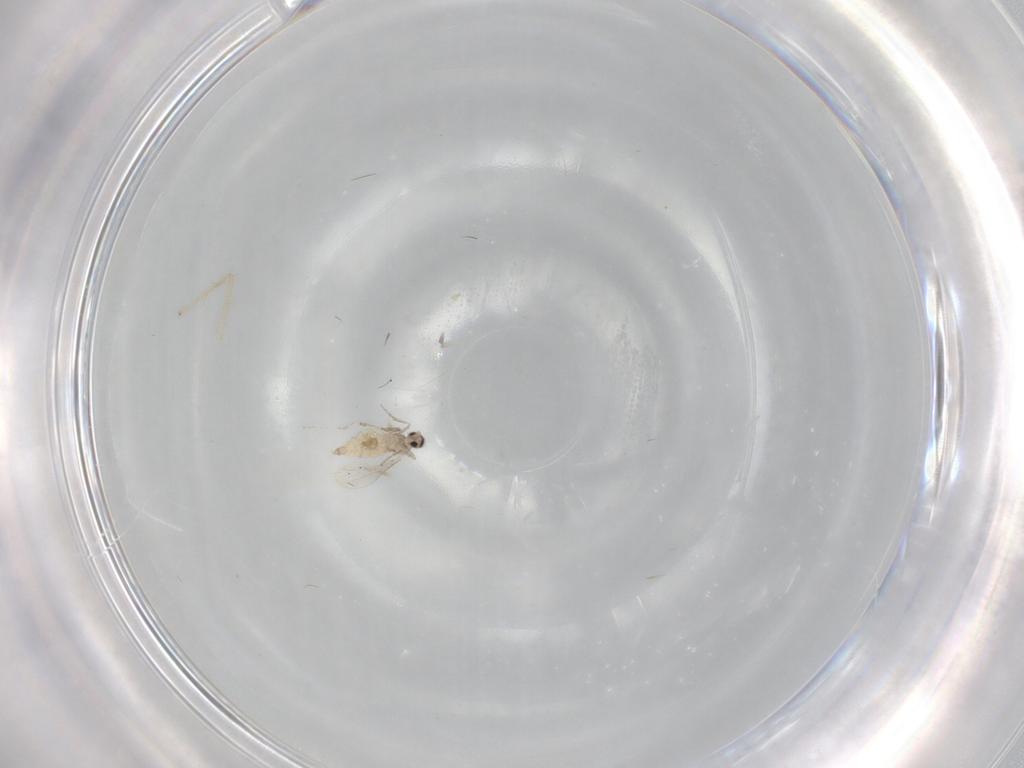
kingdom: Animalia
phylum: Arthropoda
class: Insecta
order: Diptera
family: Cecidomyiidae
